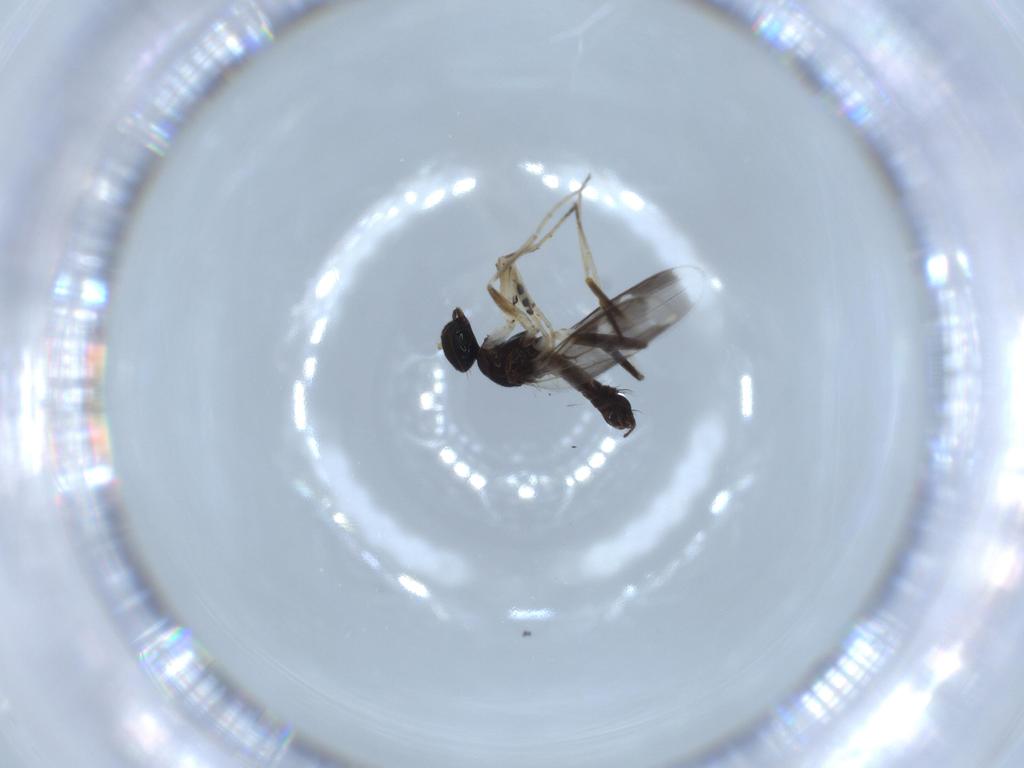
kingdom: Animalia
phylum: Arthropoda
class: Insecta
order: Diptera
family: Hybotidae
